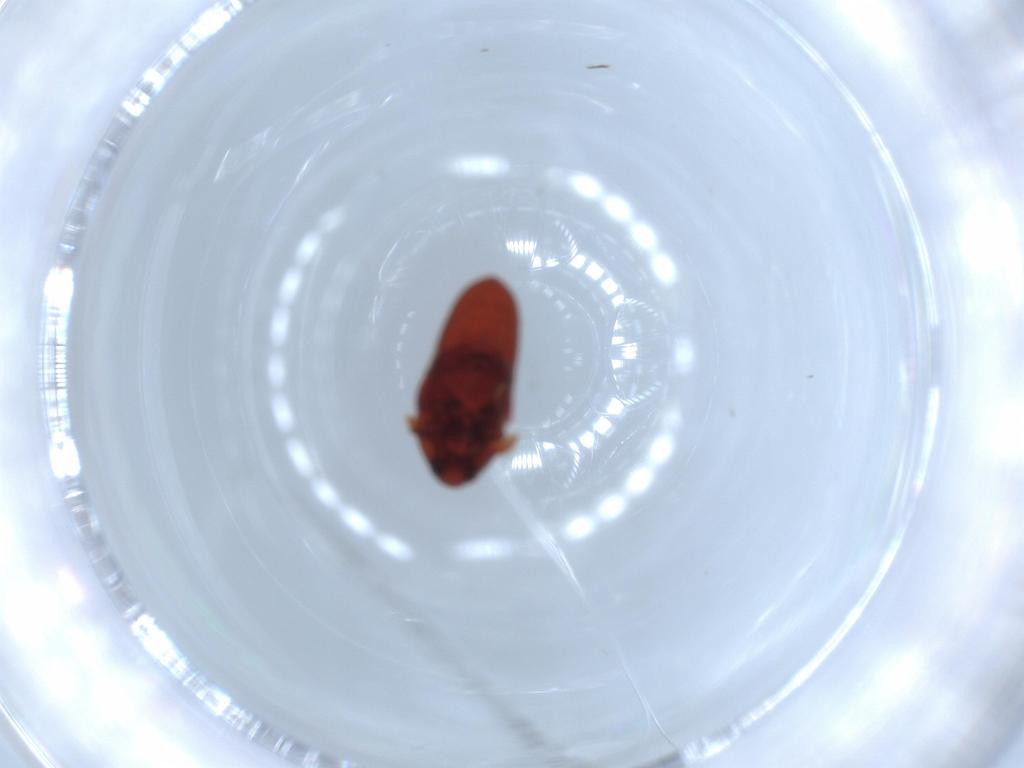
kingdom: Animalia
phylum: Arthropoda
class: Insecta
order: Coleoptera
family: Throscidae
